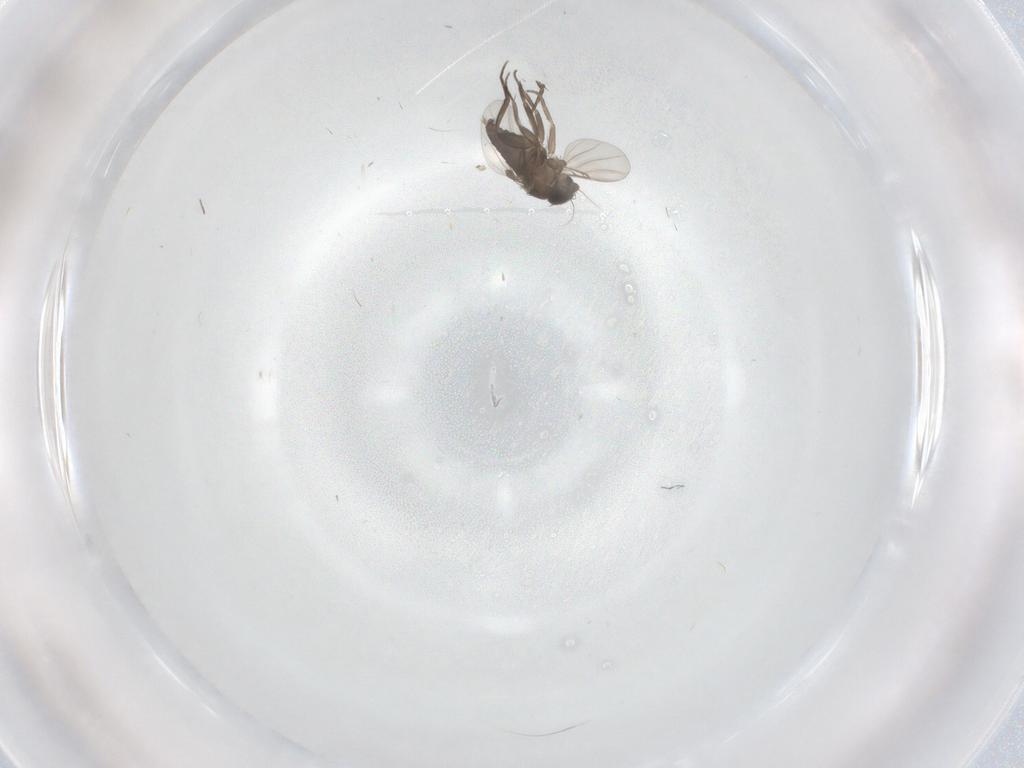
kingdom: Animalia
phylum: Arthropoda
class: Insecta
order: Diptera
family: Phoridae
